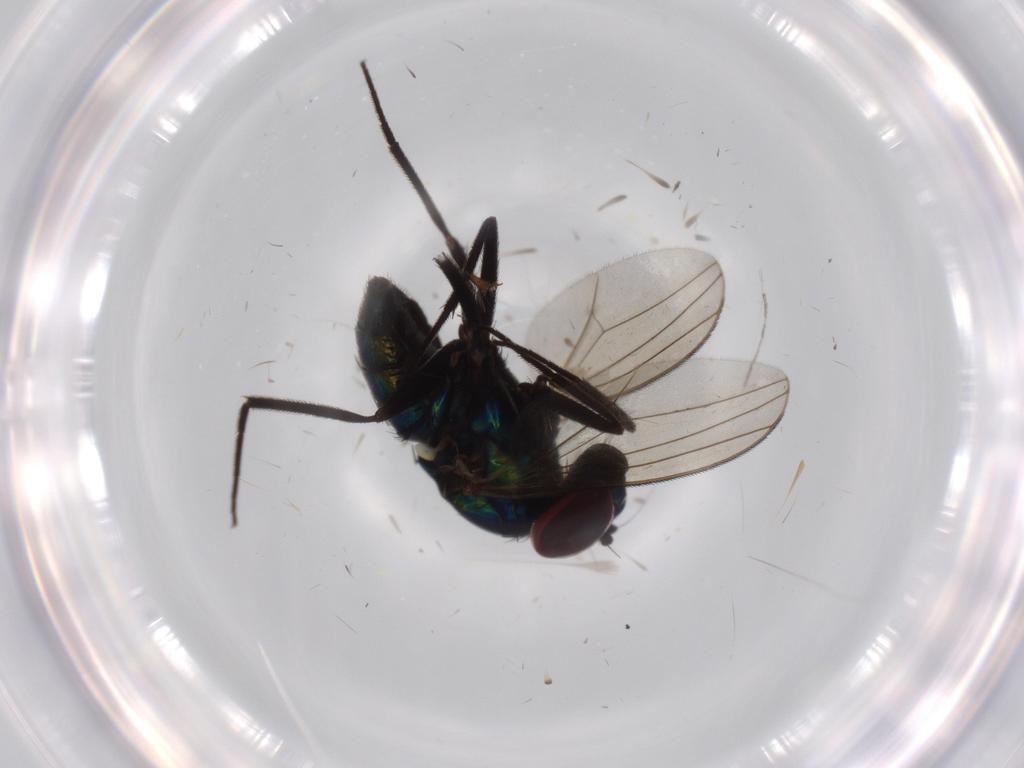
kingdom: Animalia
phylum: Arthropoda
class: Insecta
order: Diptera
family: Dolichopodidae
